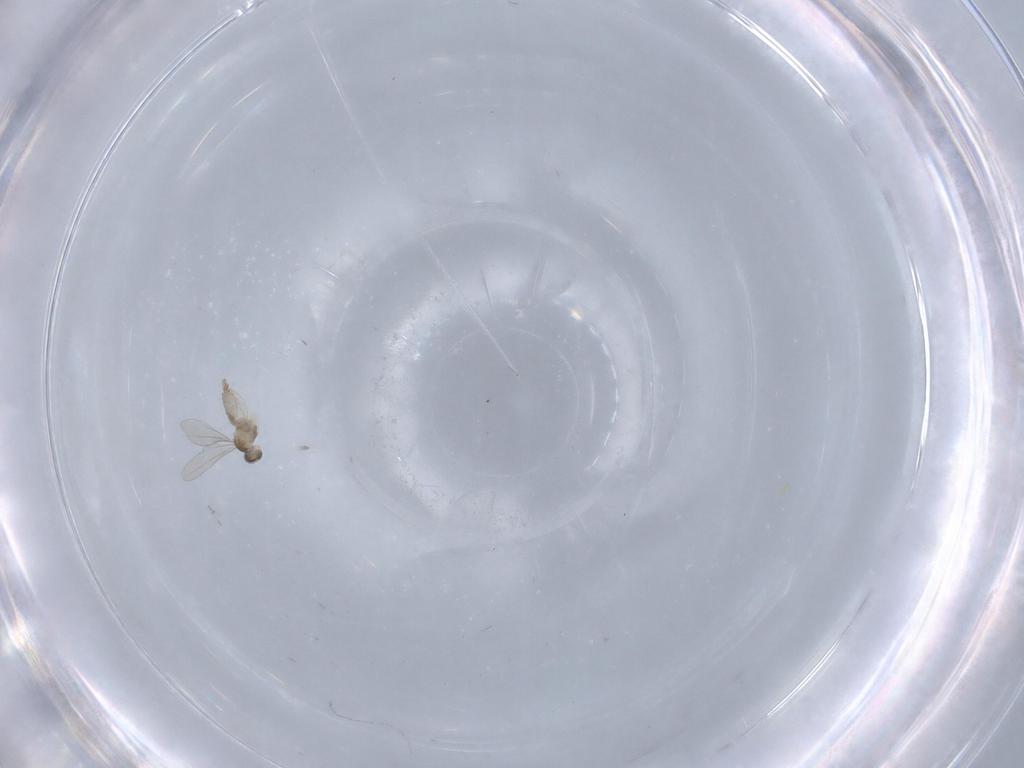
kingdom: Animalia
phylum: Arthropoda
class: Insecta
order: Diptera
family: Cecidomyiidae
